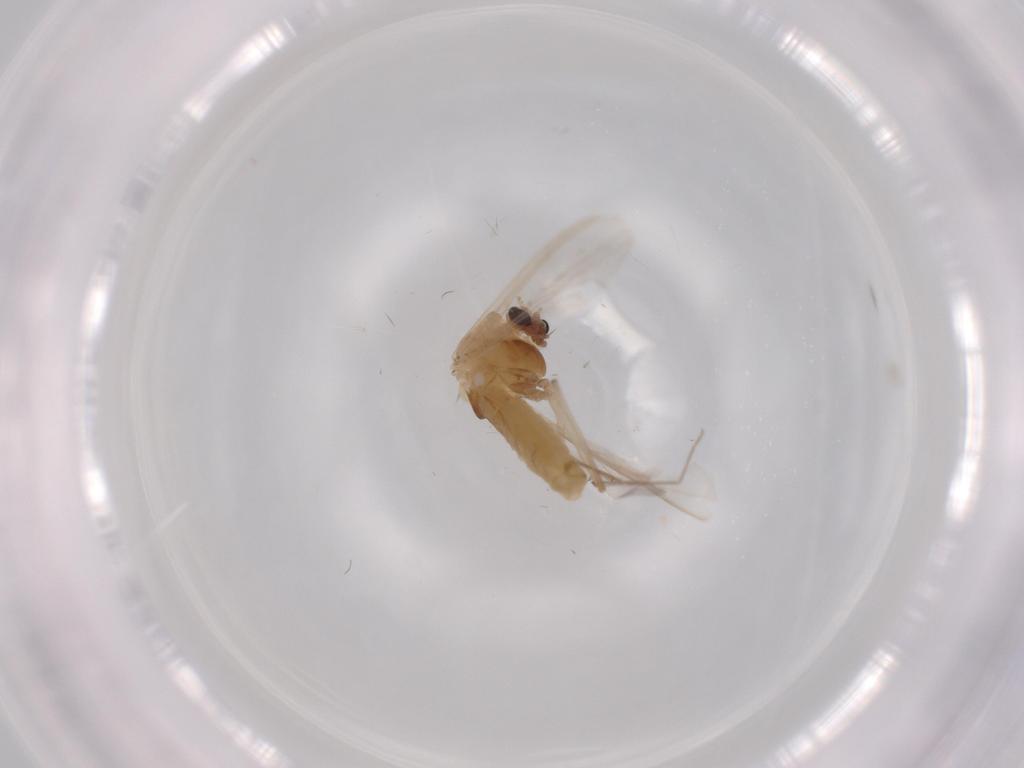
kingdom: Animalia
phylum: Arthropoda
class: Insecta
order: Diptera
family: Chironomidae
